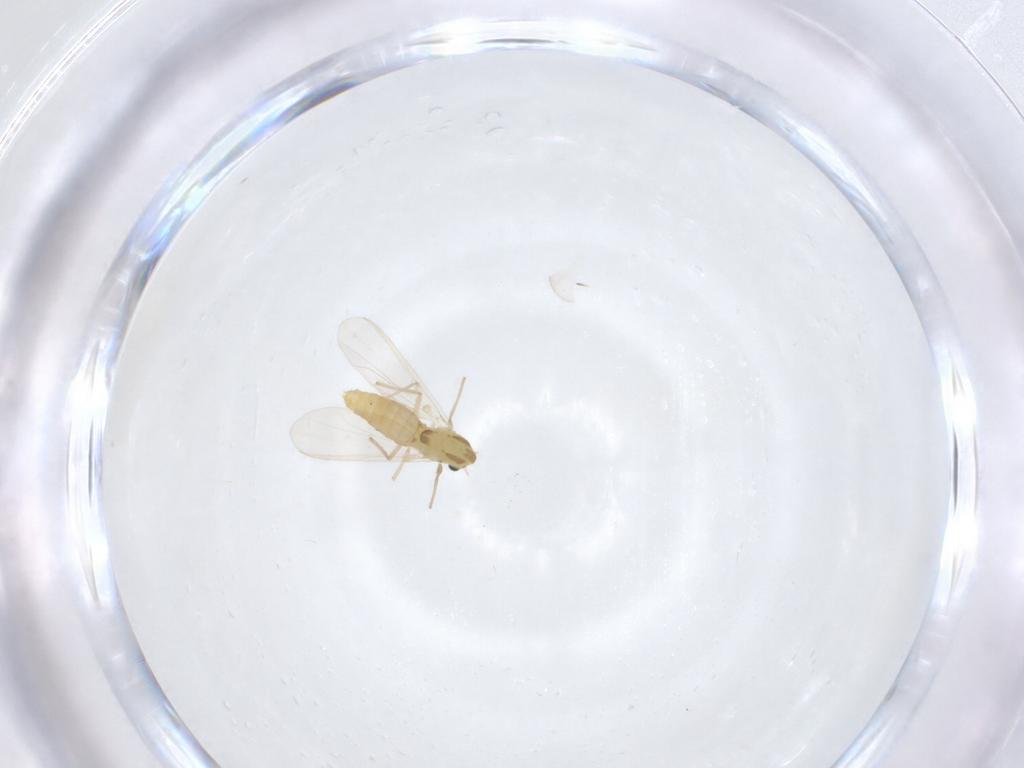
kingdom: Animalia
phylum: Arthropoda
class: Insecta
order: Diptera
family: Chironomidae
